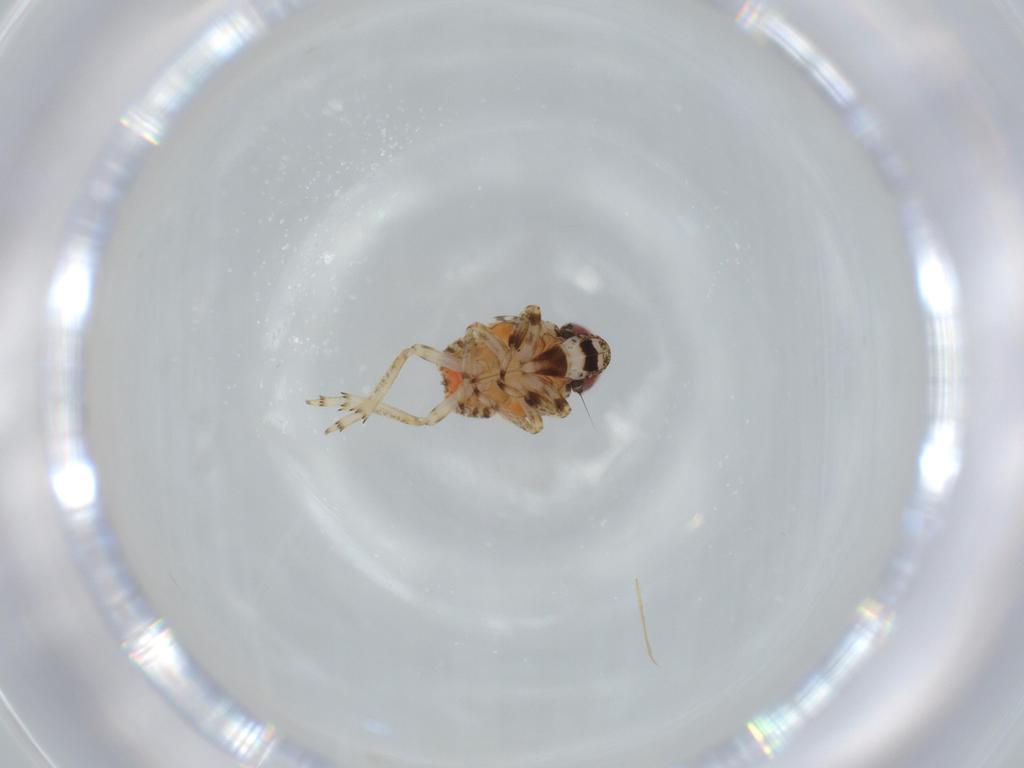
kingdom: Animalia
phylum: Arthropoda
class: Insecta
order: Hemiptera
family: Issidae
